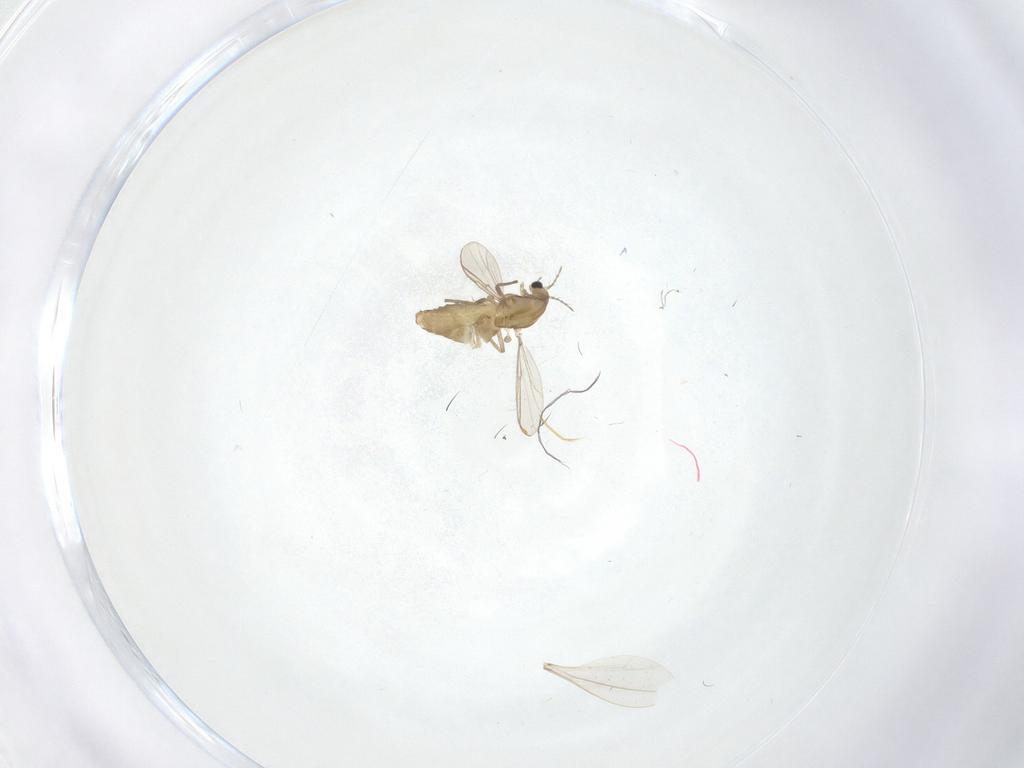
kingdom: Animalia
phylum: Arthropoda
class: Insecta
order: Diptera
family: Chironomidae
